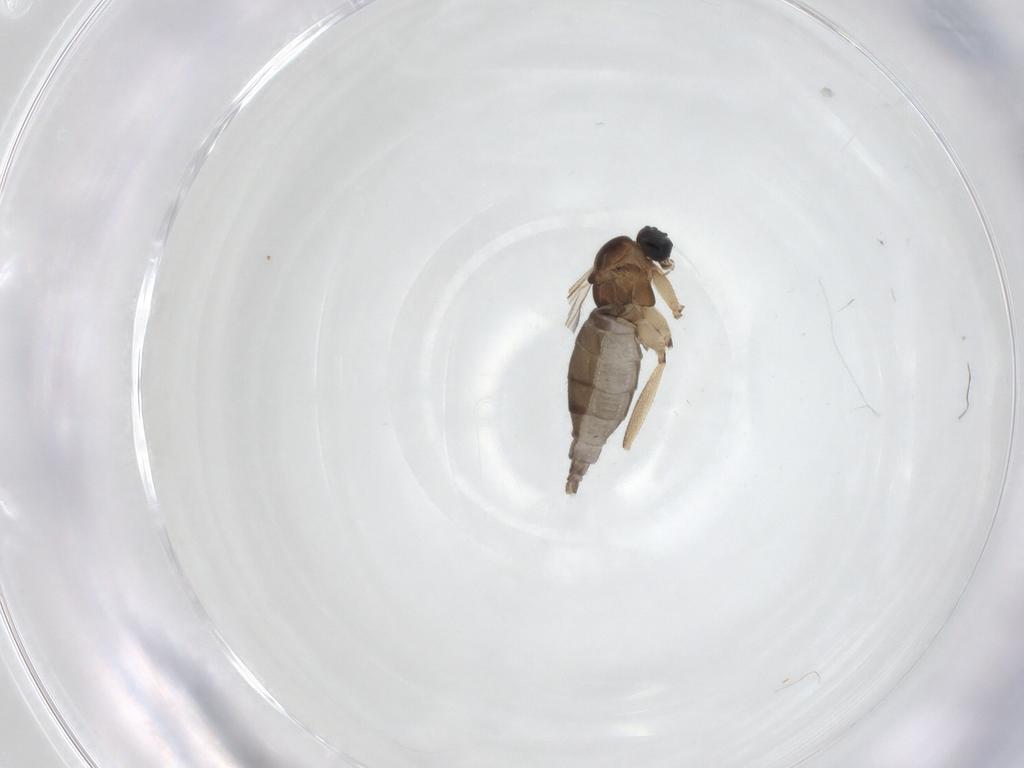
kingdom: Animalia
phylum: Arthropoda
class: Insecta
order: Diptera
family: Sciaridae
